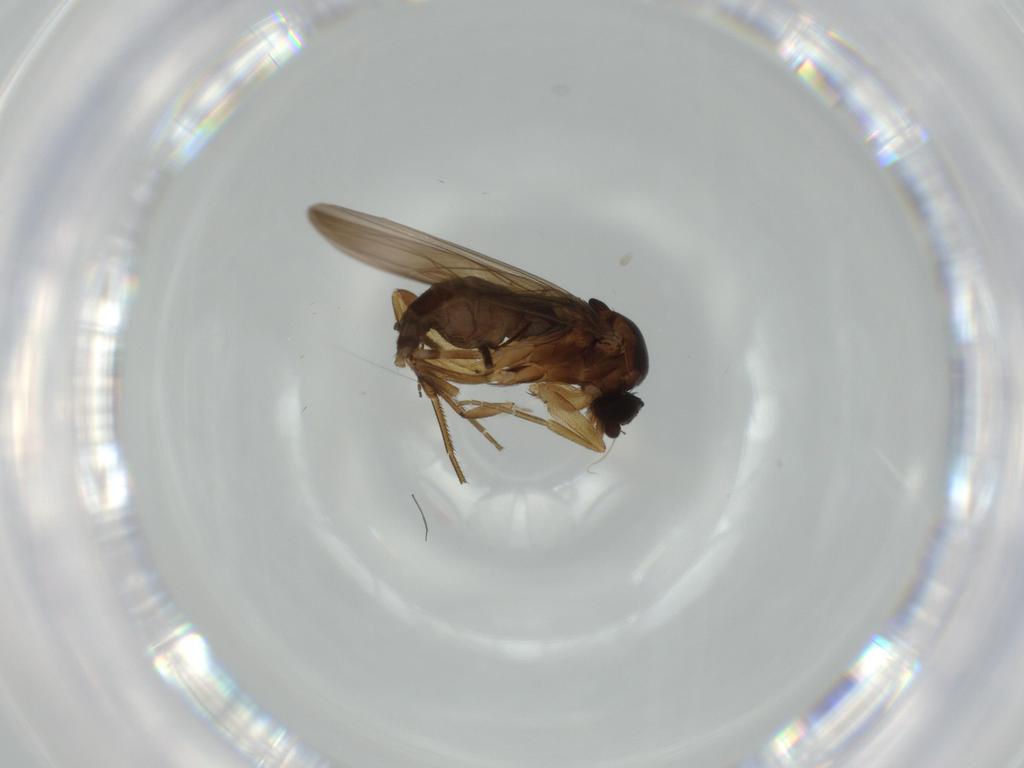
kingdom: Animalia
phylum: Arthropoda
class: Insecta
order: Diptera
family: Phoridae
